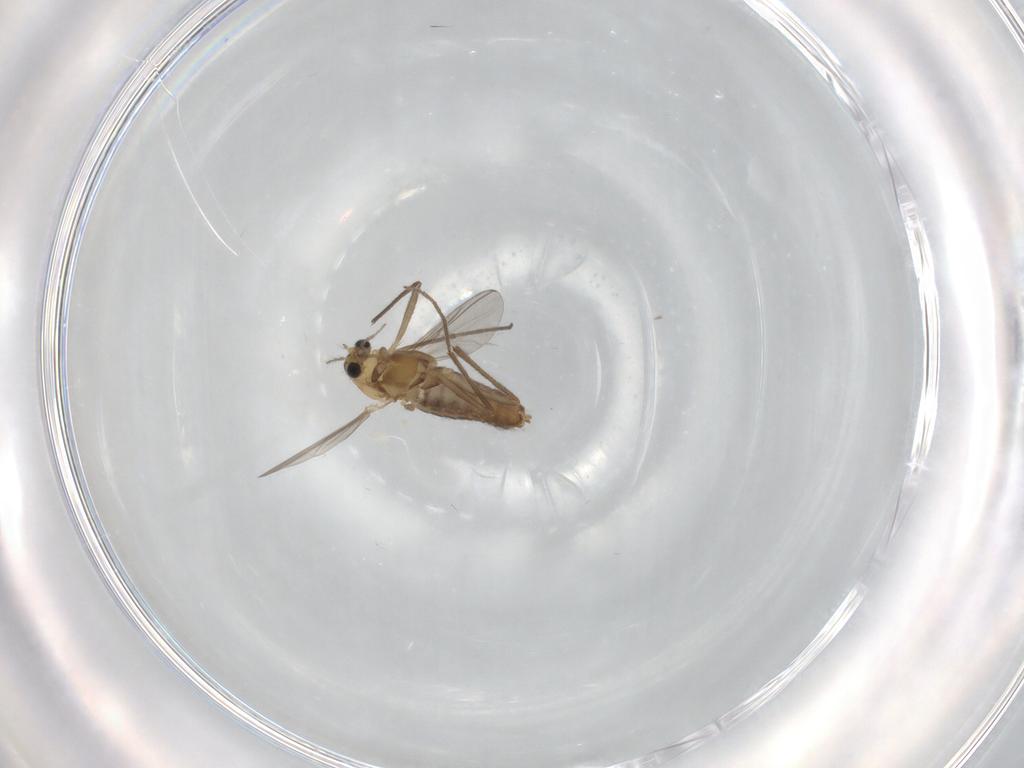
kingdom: Animalia
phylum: Arthropoda
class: Insecta
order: Diptera
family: Chironomidae
